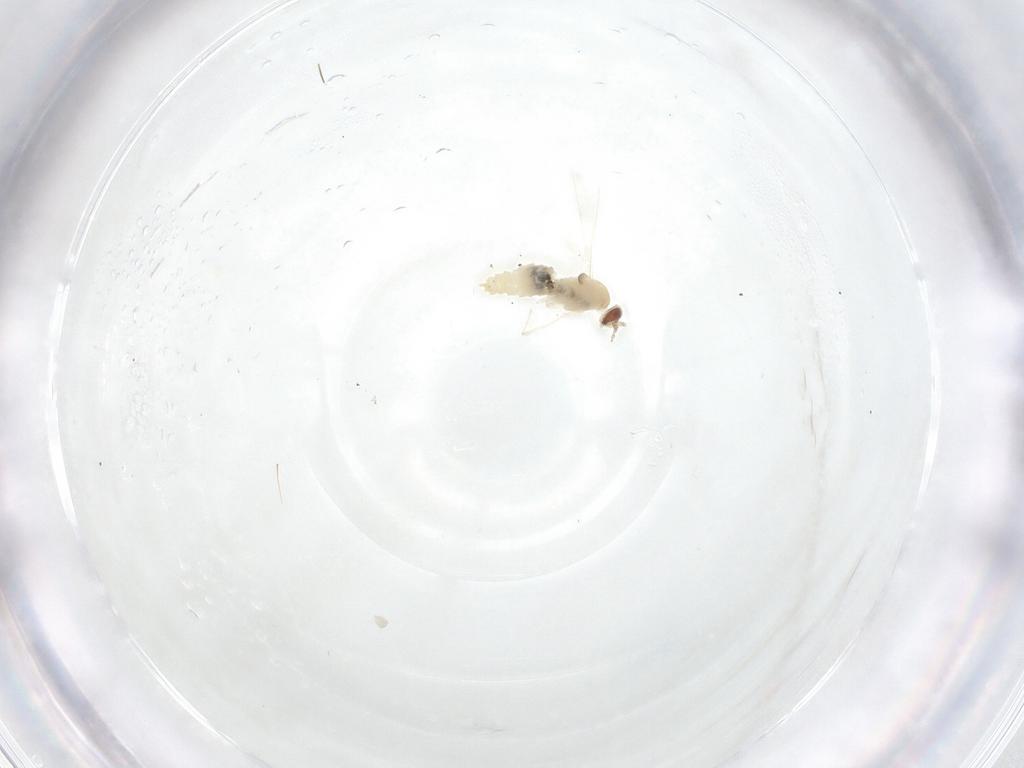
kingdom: Animalia
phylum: Arthropoda
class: Insecta
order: Diptera
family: Cecidomyiidae
